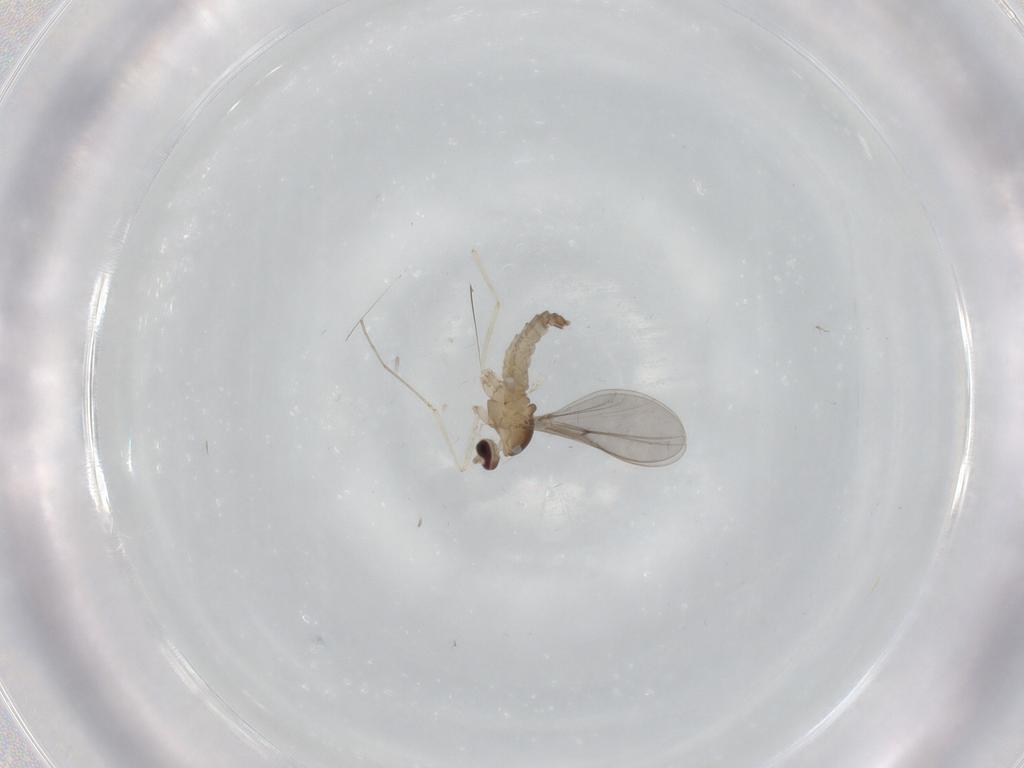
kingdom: Animalia
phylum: Arthropoda
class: Insecta
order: Diptera
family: Cecidomyiidae
